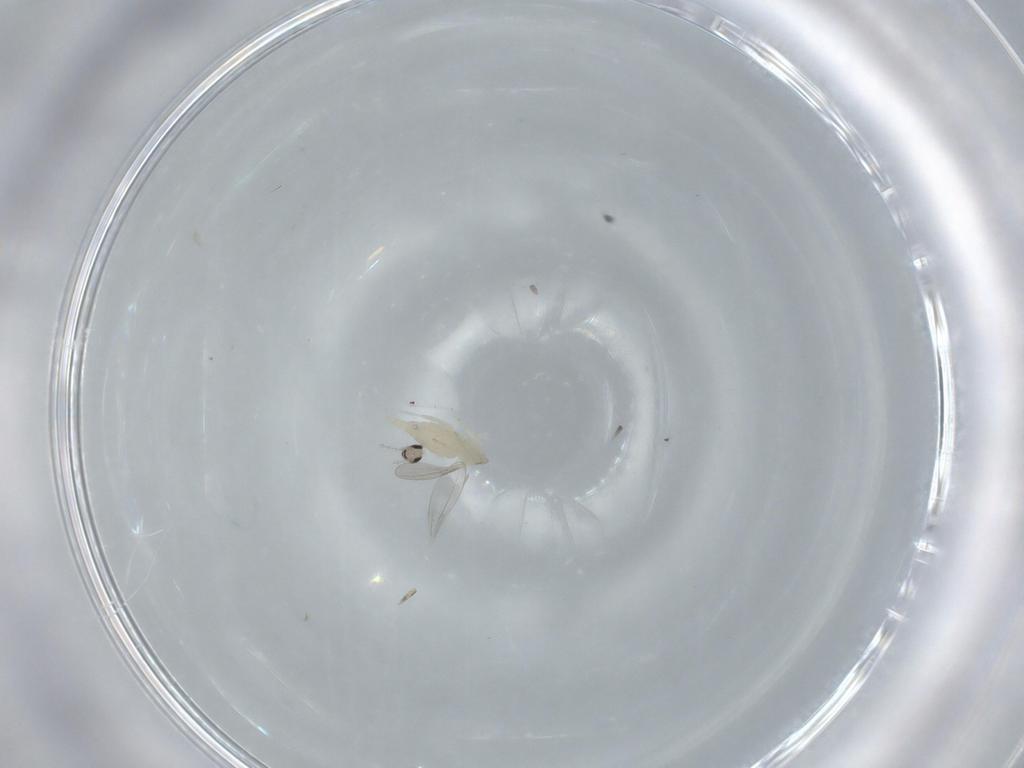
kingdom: Animalia
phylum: Arthropoda
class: Insecta
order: Diptera
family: Cecidomyiidae
